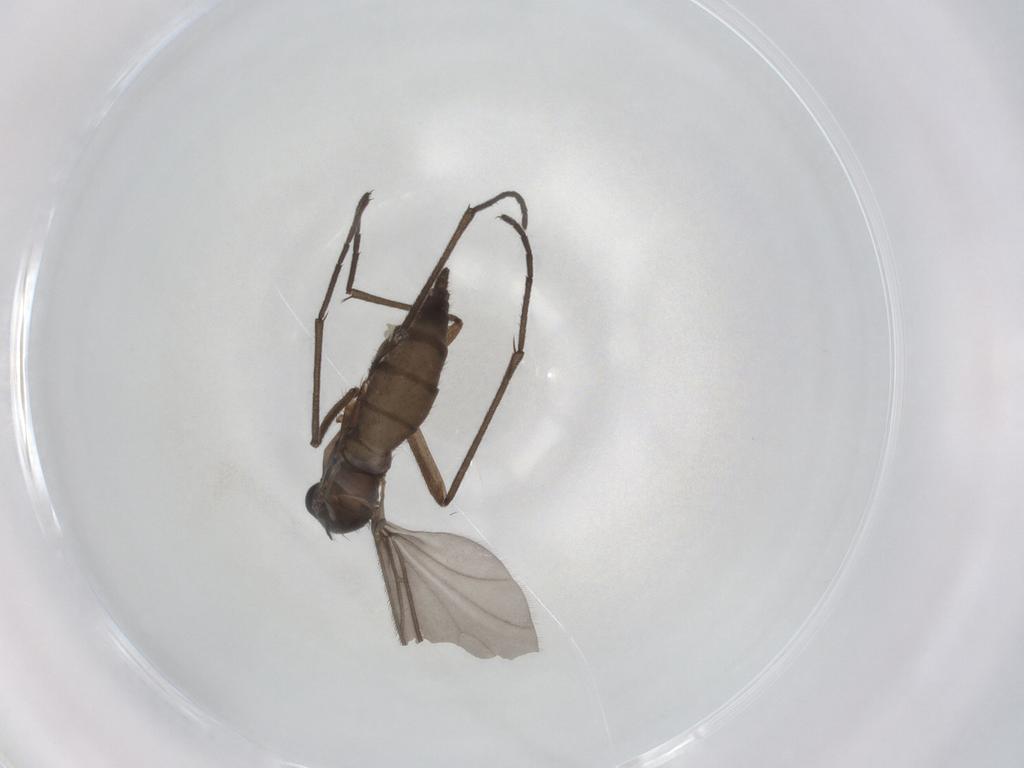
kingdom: Animalia
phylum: Arthropoda
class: Insecta
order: Diptera
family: Sciaridae
